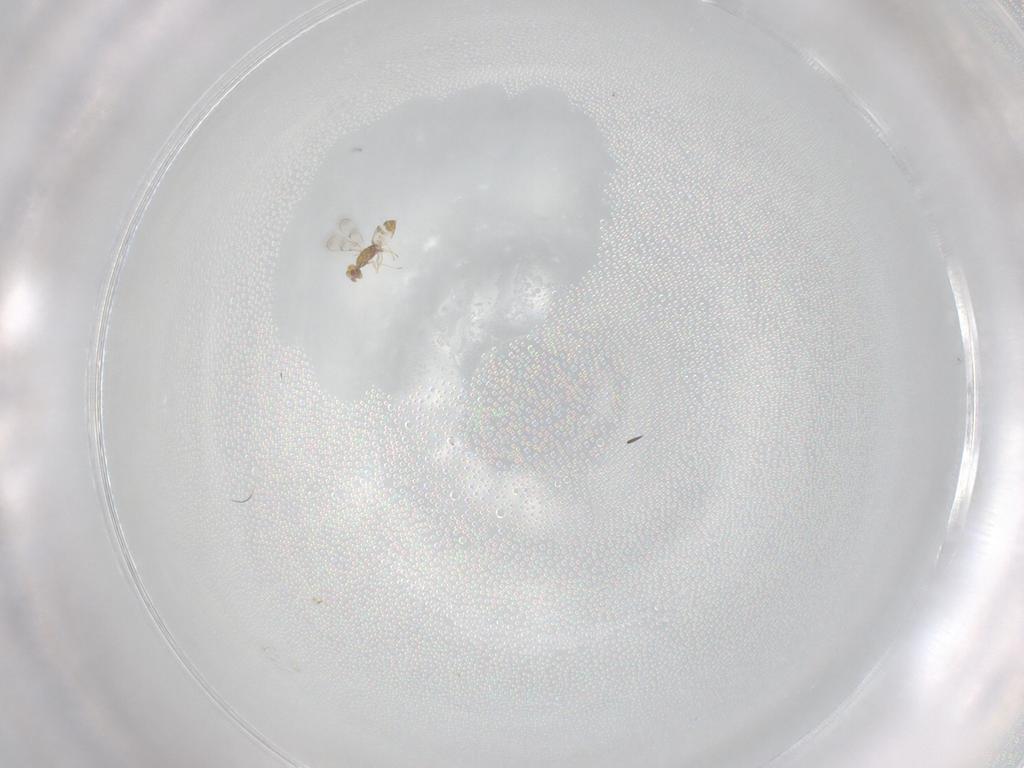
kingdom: Animalia
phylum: Arthropoda
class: Insecta
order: Hymenoptera
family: Eulophidae
